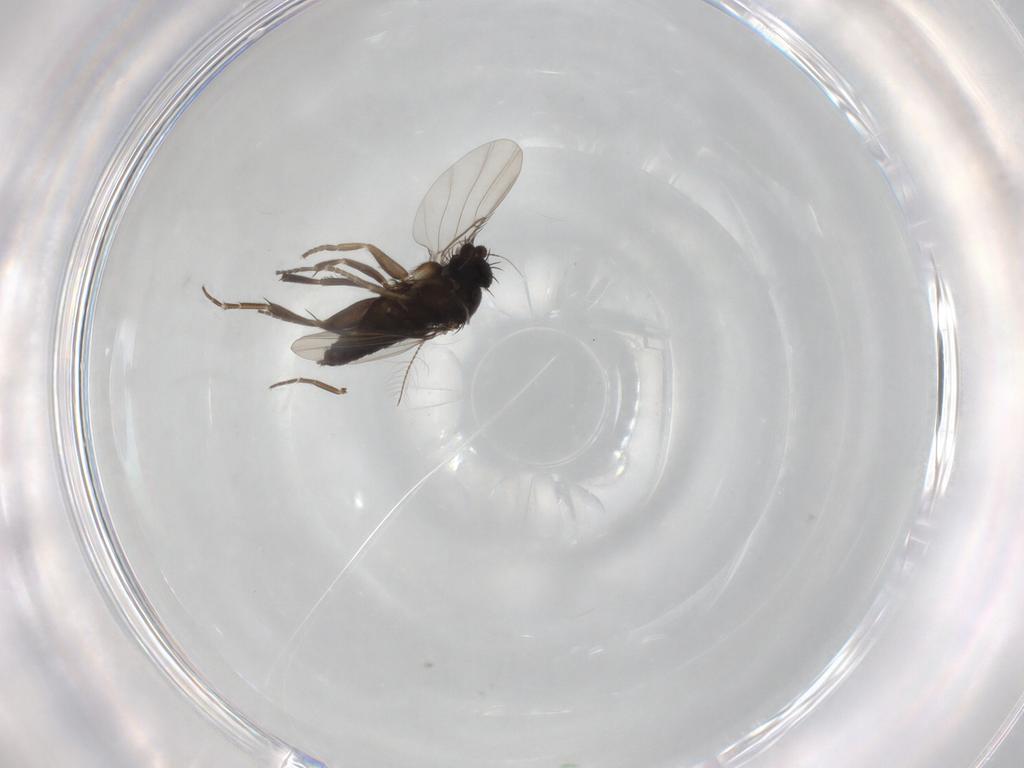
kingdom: Animalia
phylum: Arthropoda
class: Insecta
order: Diptera
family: Phoridae
